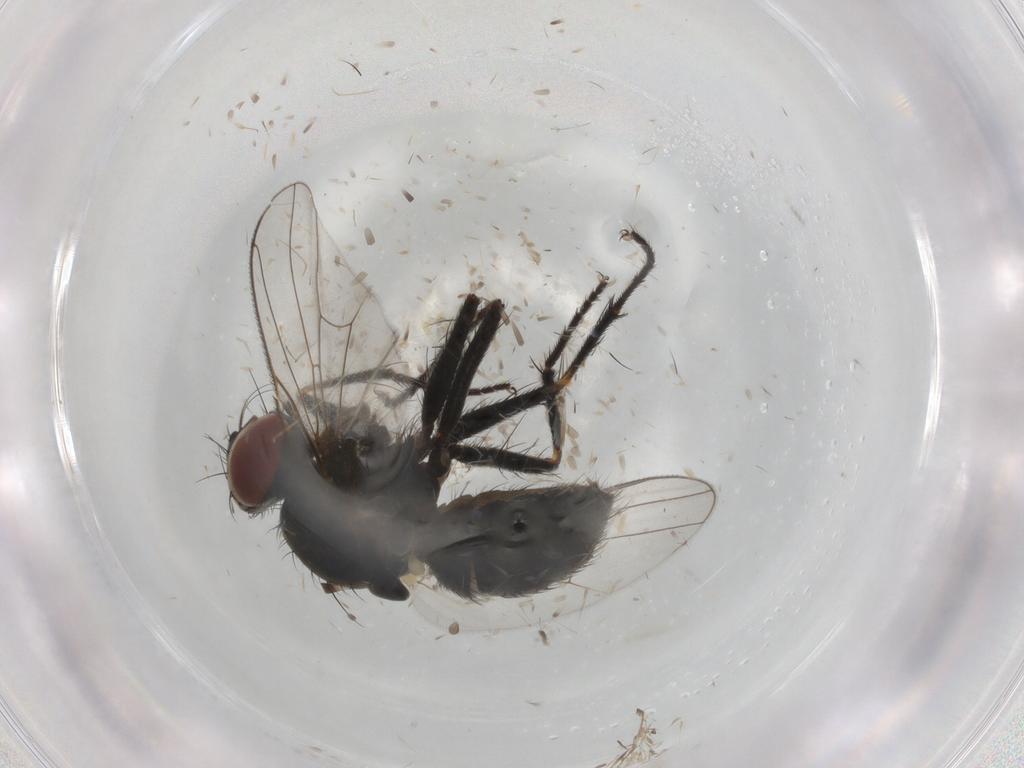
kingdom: Animalia
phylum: Arthropoda
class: Insecta
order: Diptera
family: Muscidae
